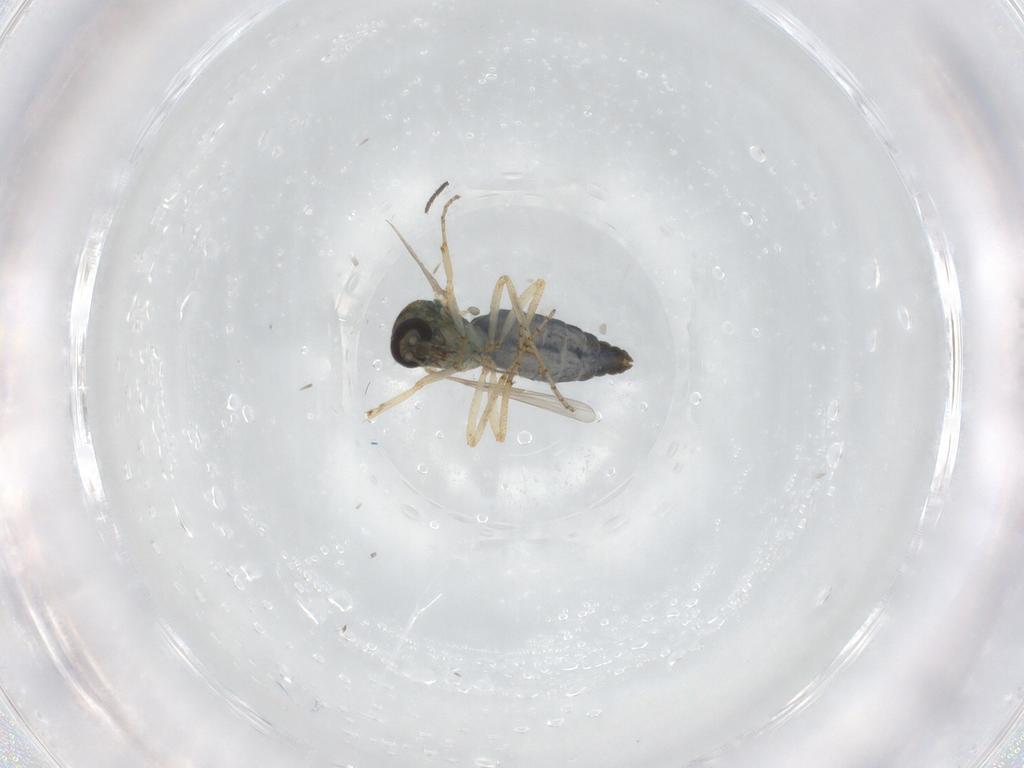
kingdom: Animalia
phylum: Arthropoda
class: Insecta
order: Diptera
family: Ceratopogonidae
